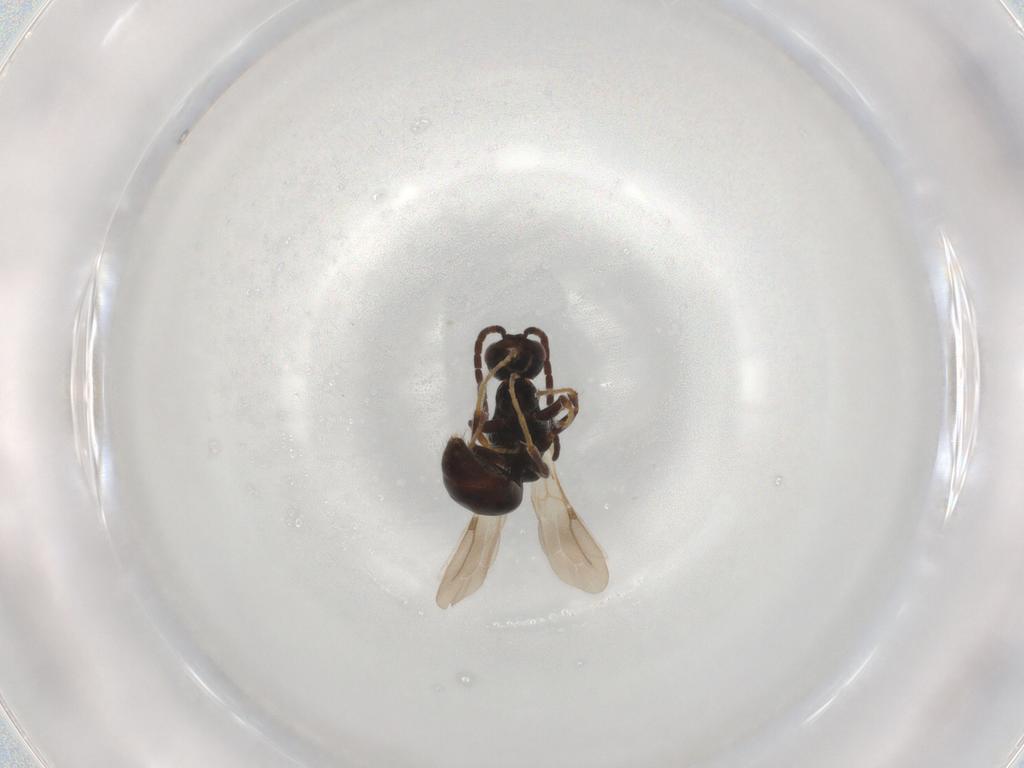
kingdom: Animalia
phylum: Arthropoda
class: Insecta
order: Hymenoptera
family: Bethylidae
